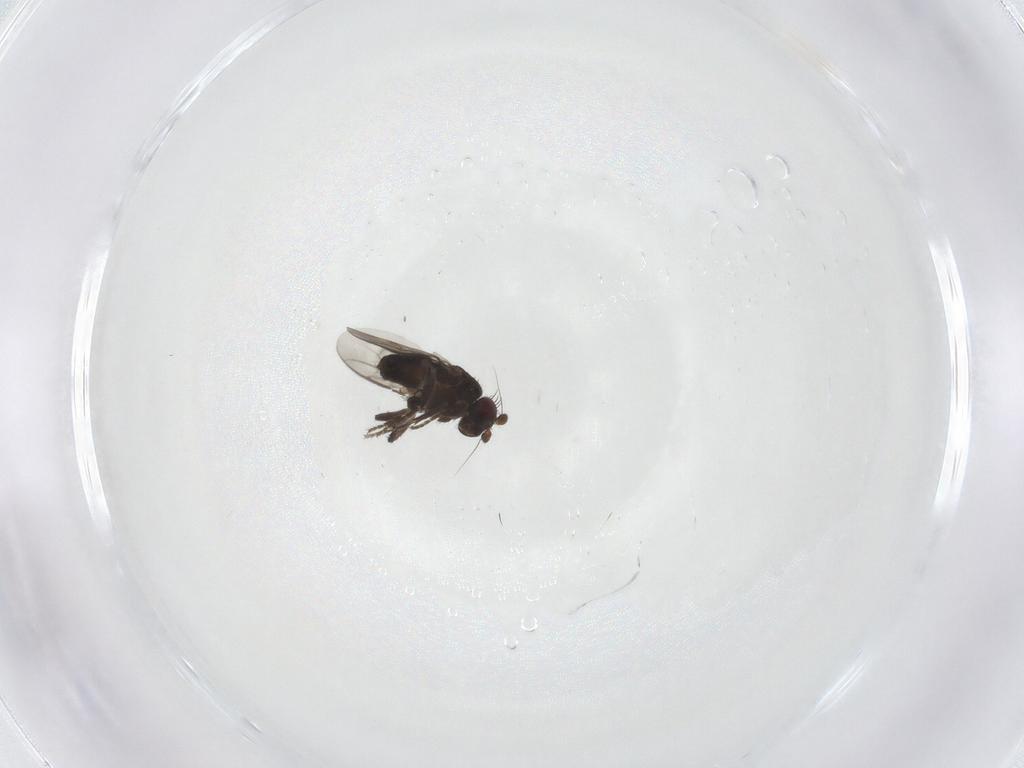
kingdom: Animalia
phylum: Arthropoda
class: Insecta
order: Diptera
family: Sphaeroceridae
